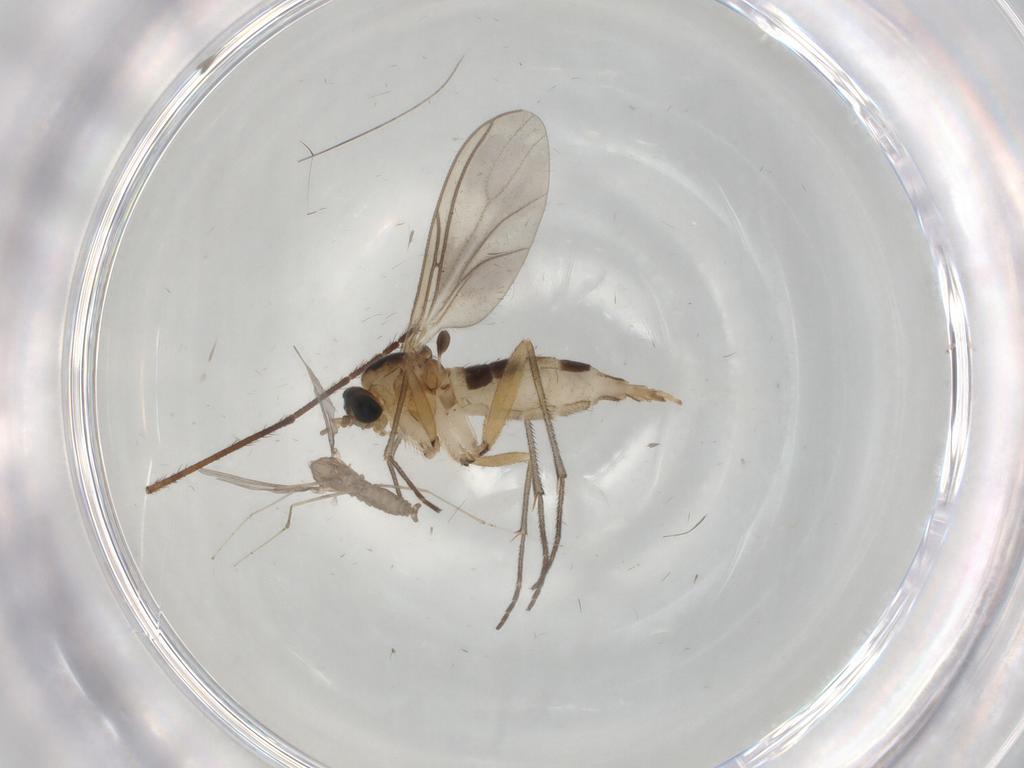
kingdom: Animalia
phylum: Arthropoda
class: Insecta
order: Diptera
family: Sciaridae
